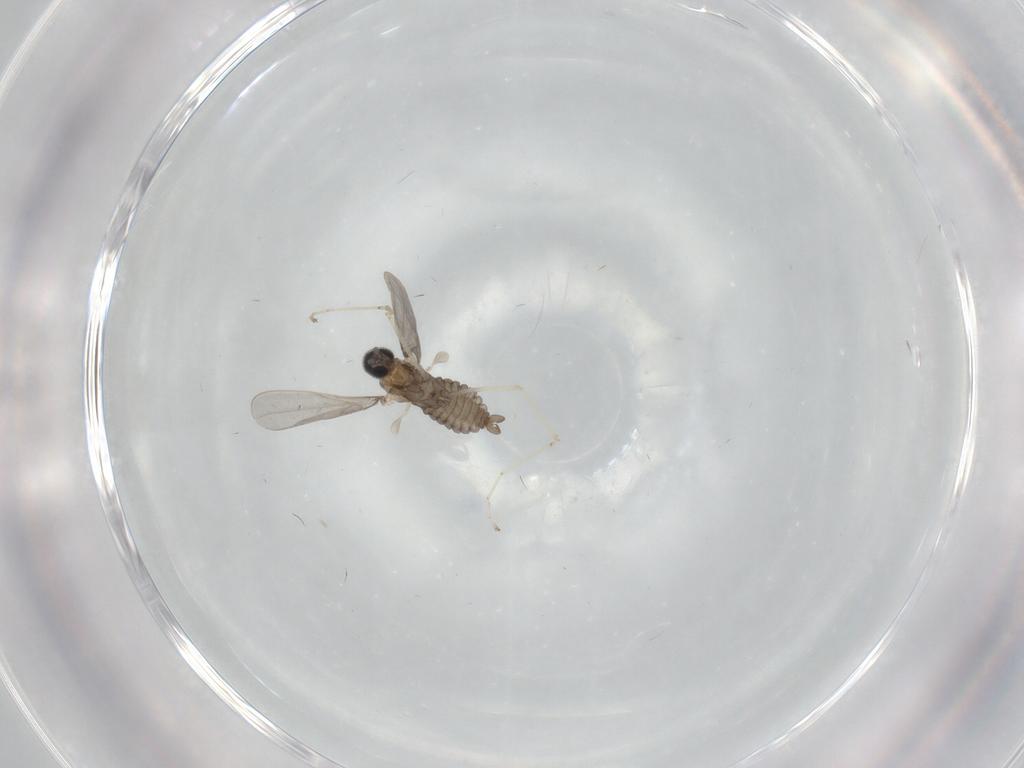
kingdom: Animalia
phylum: Arthropoda
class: Insecta
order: Diptera
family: Cecidomyiidae
